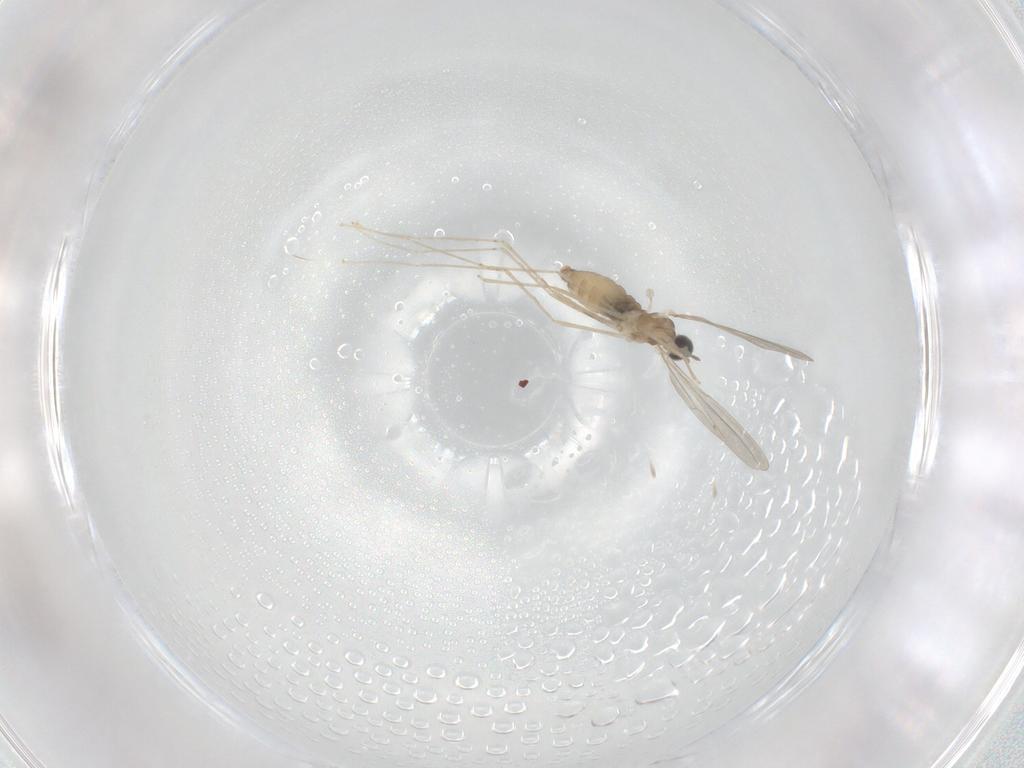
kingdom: Animalia
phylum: Arthropoda
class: Insecta
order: Diptera
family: Cecidomyiidae
